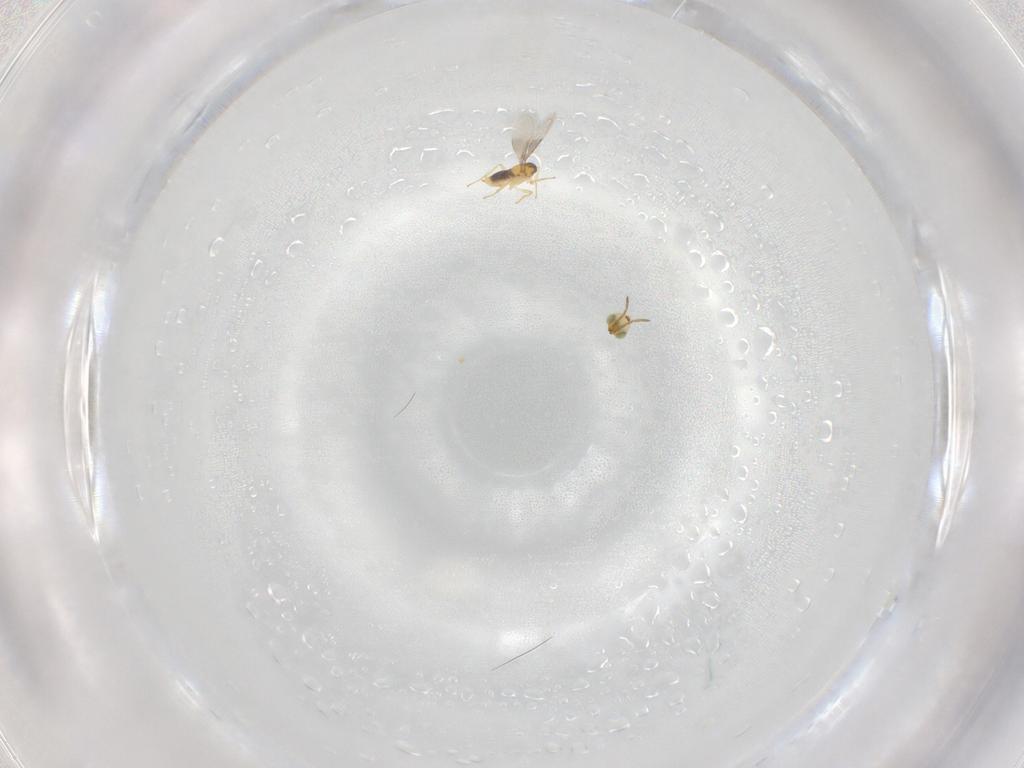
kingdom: Animalia
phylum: Arthropoda
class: Insecta
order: Hymenoptera
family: Aphelinidae
